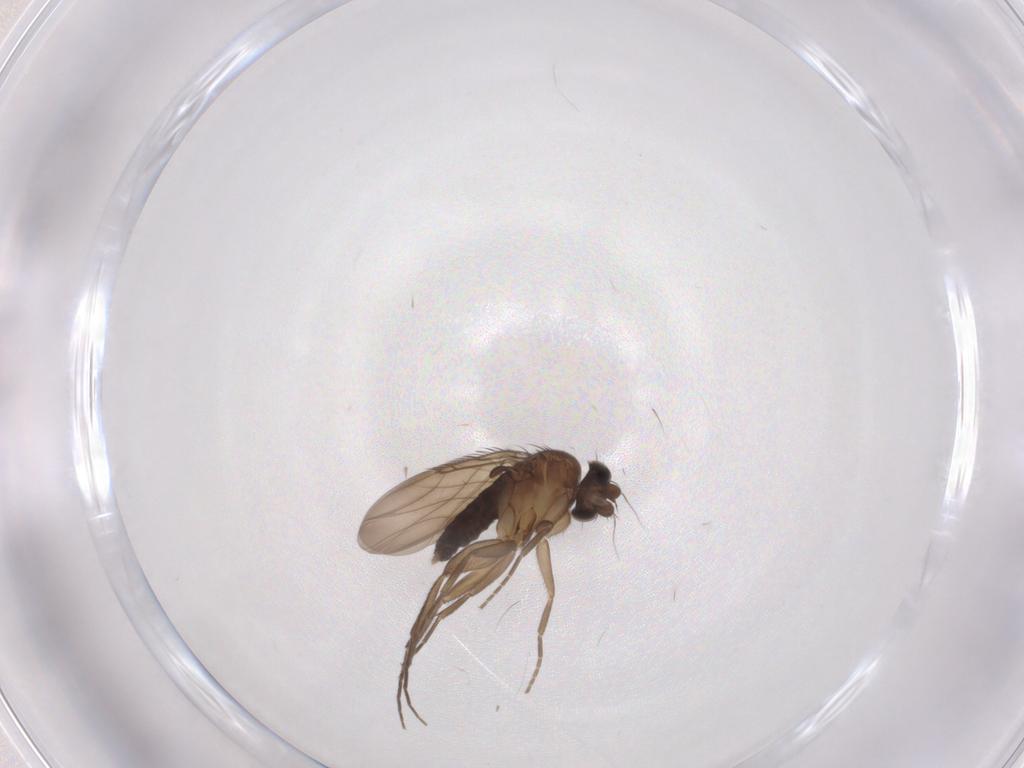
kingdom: Animalia
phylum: Arthropoda
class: Insecta
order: Diptera
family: Phoridae
